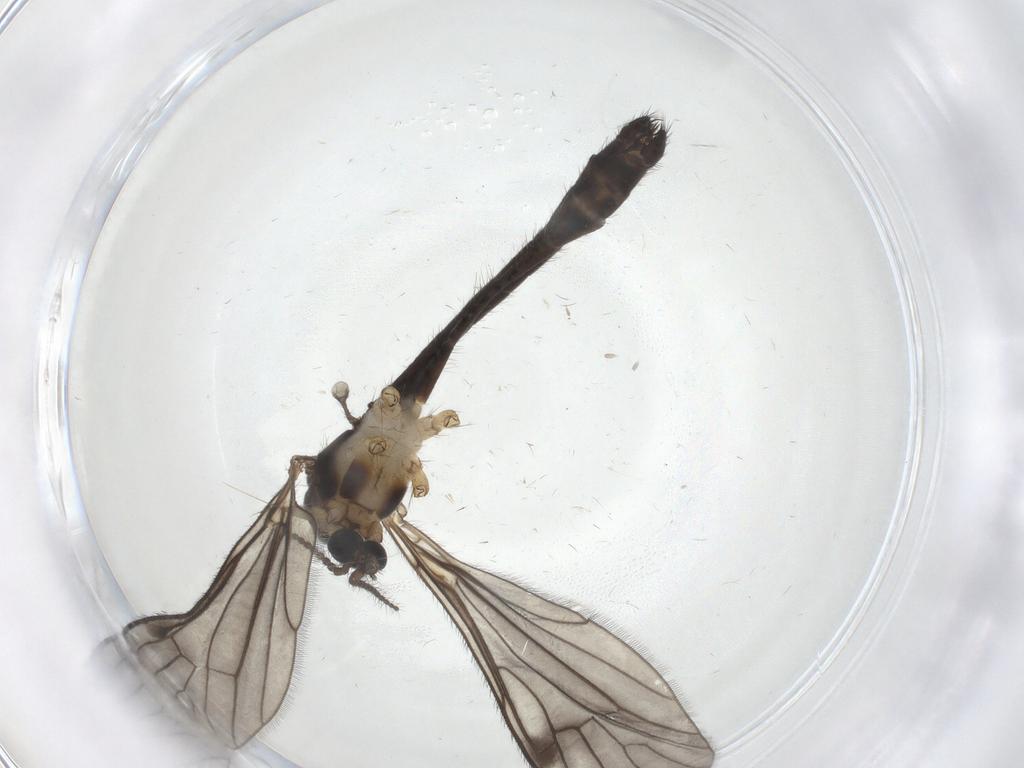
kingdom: Animalia
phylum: Arthropoda
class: Insecta
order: Diptera
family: Limoniidae
